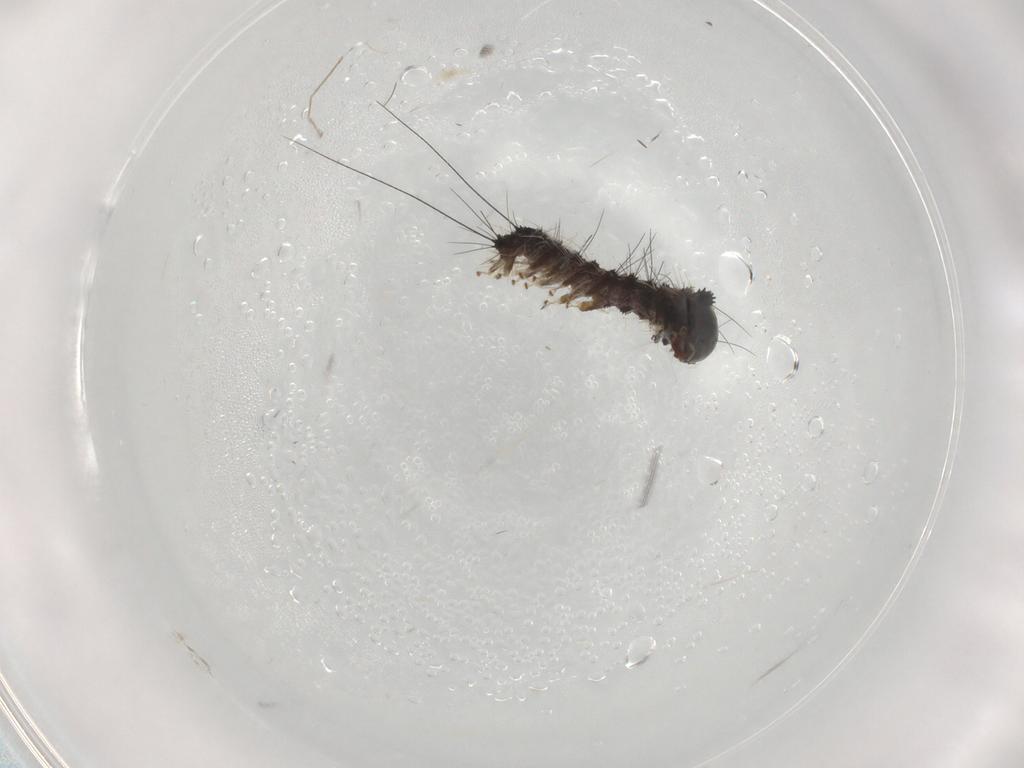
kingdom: Animalia
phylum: Arthropoda
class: Insecta
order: Lepidoptera
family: Erebidae
